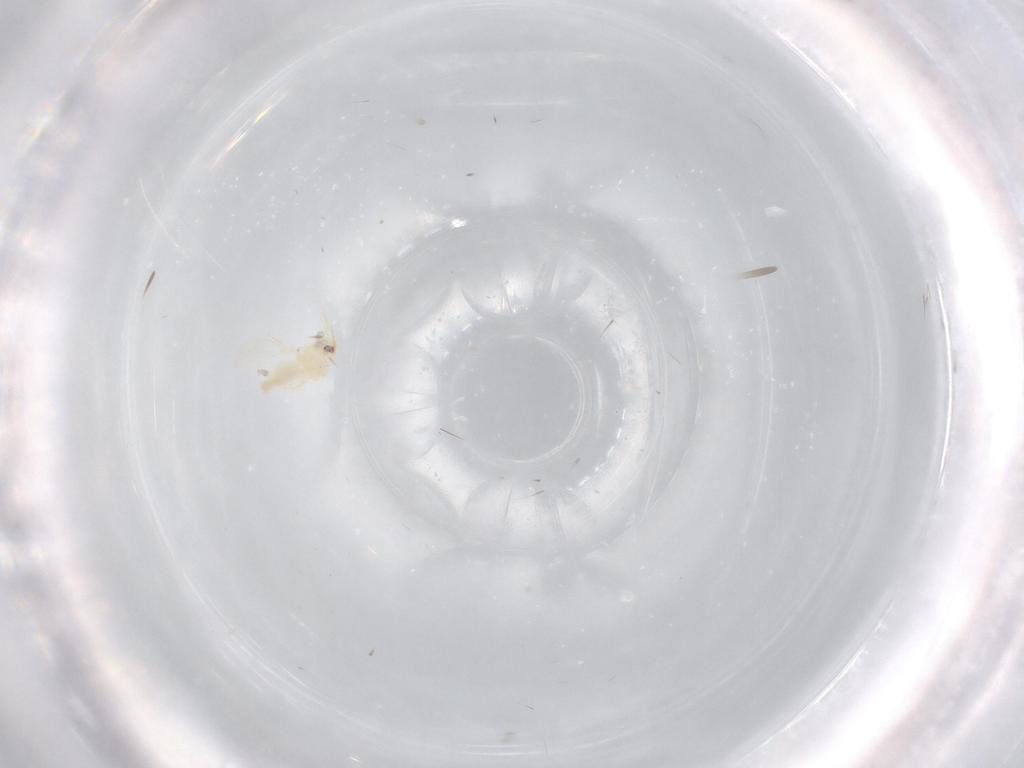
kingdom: Animalia
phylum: Arthropoda
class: Insecta
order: Hemiptera
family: Aleyrodidae
